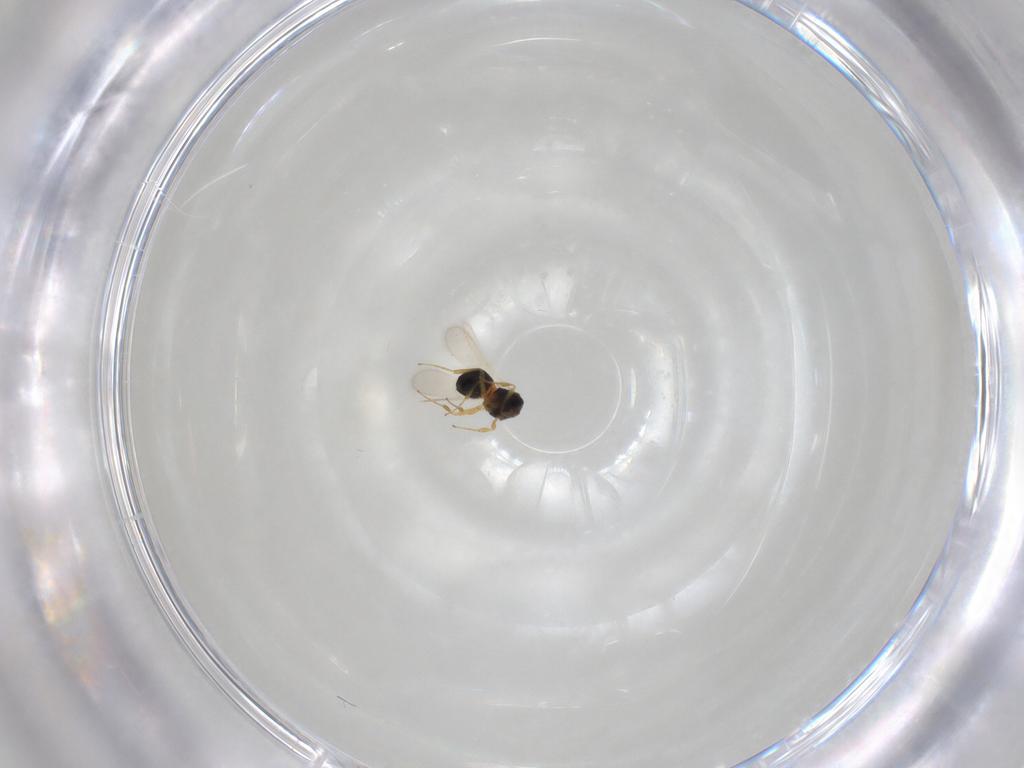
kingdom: Animalia
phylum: Arthropoda
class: Insecta
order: Hymenoptera
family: Scelionidae
